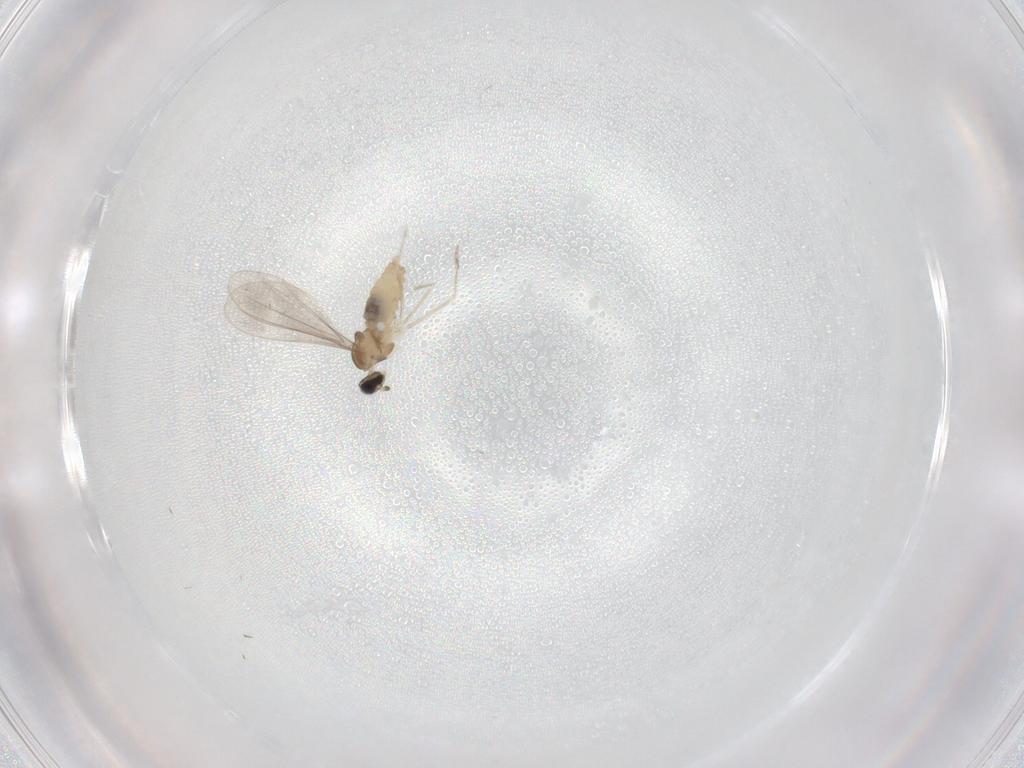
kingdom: Animalia
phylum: Arthropoda
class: Insecta
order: Diptera
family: Cecidomyiidae
